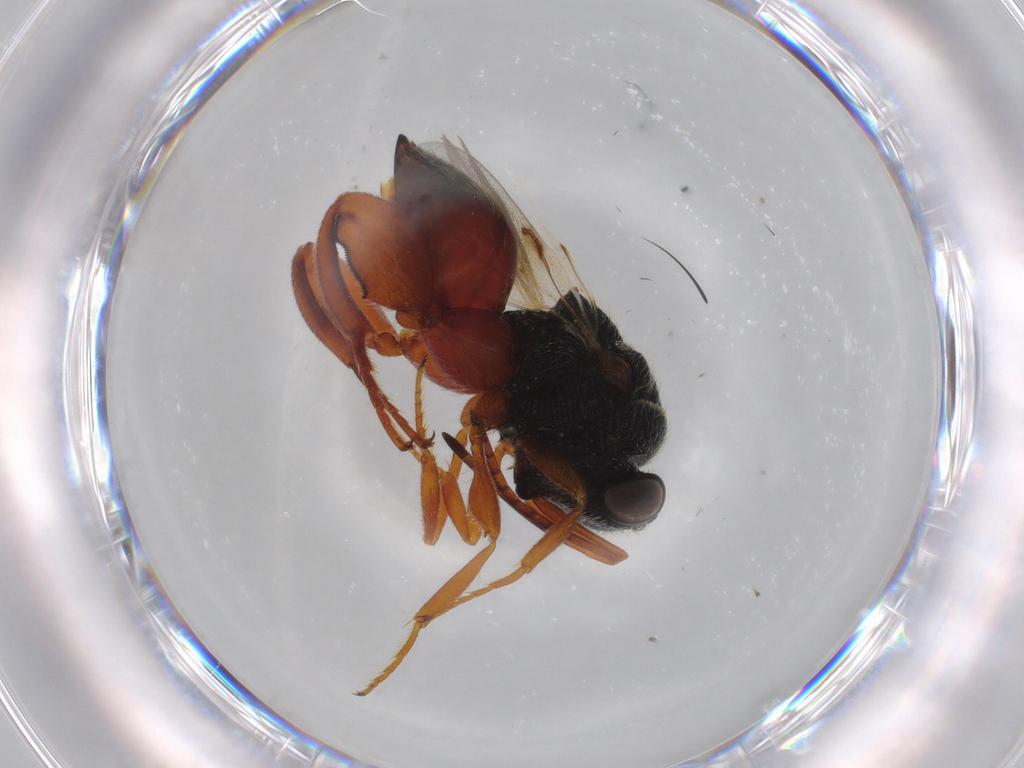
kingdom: Animalia
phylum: Arthropoda
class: Insecta
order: Hymenoptera
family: Chalcididae
